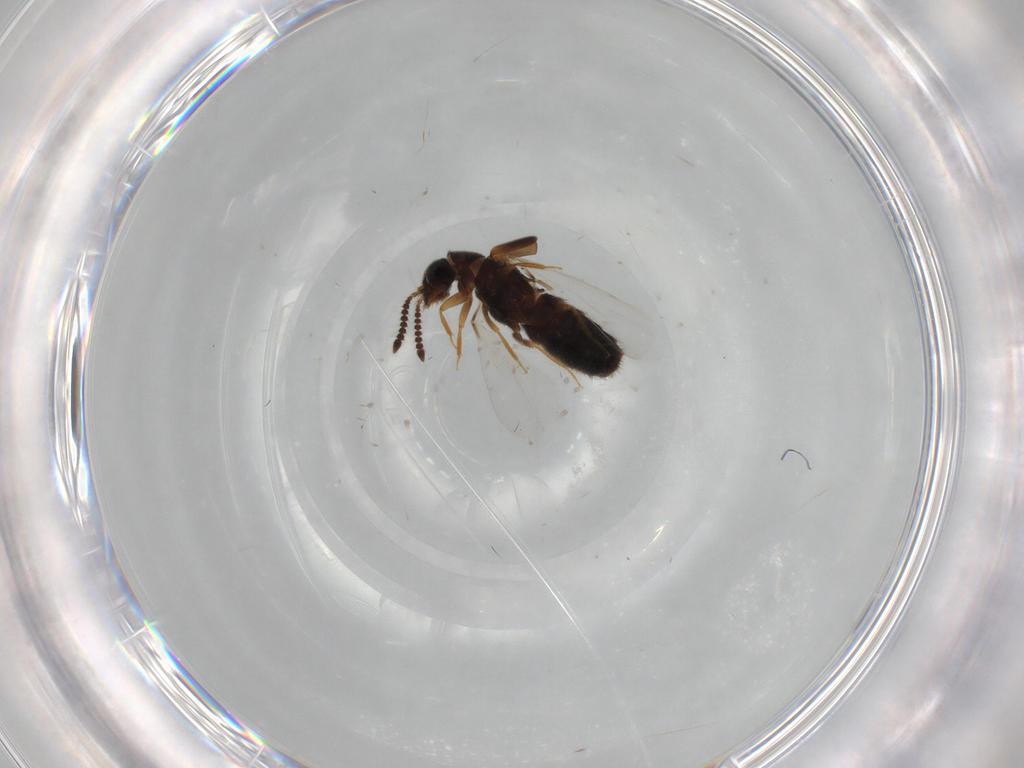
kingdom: Animalia
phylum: Arthropoda
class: Insecta
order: Coleoptera
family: Staphylinidae
